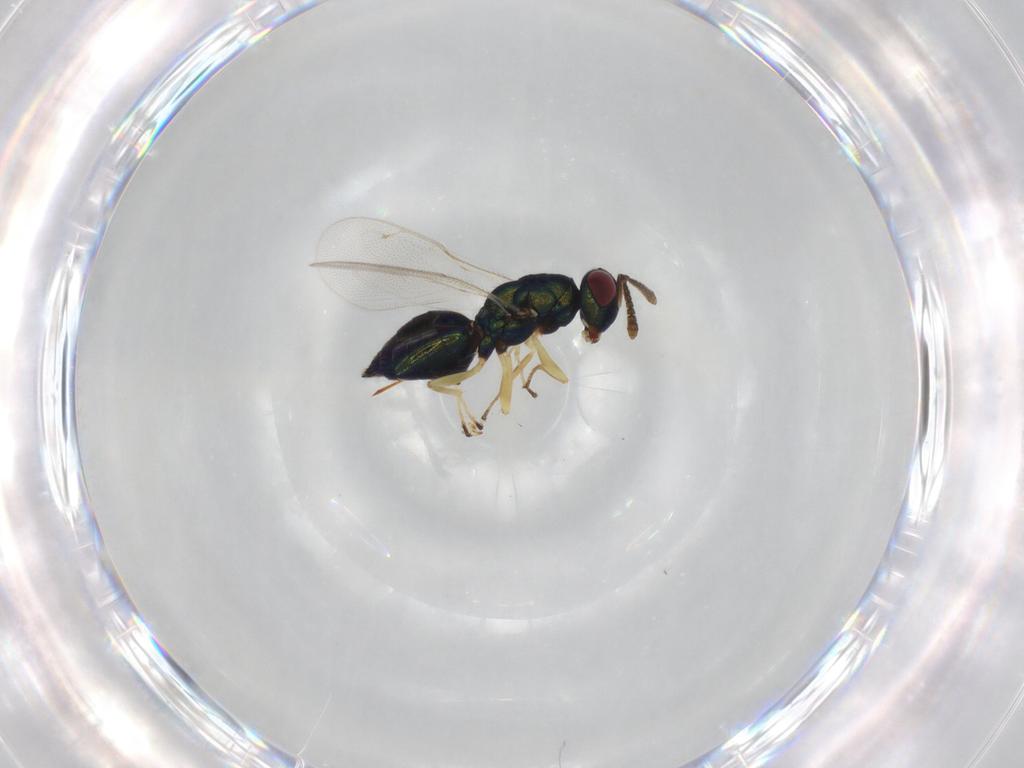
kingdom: Animalia
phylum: Arthropoda
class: Insecta
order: Hymenoptera
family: Pteromalidae
